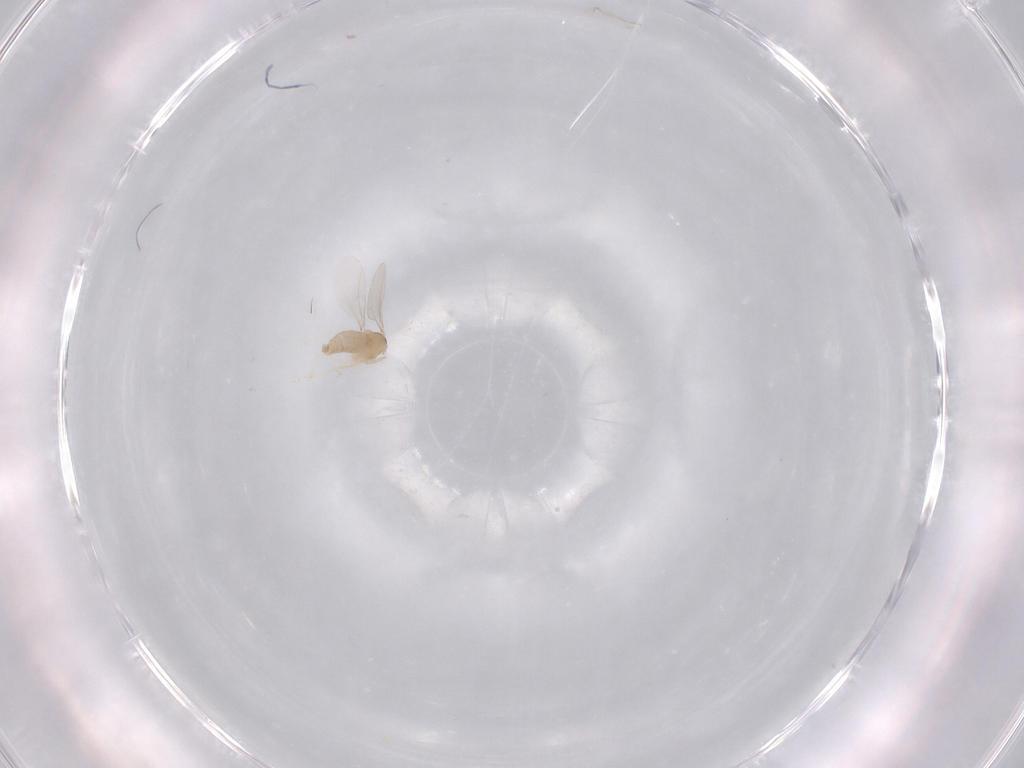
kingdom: Animalia
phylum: Arthropoda
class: Insecta
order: Diptera
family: Cecidomyiidae
